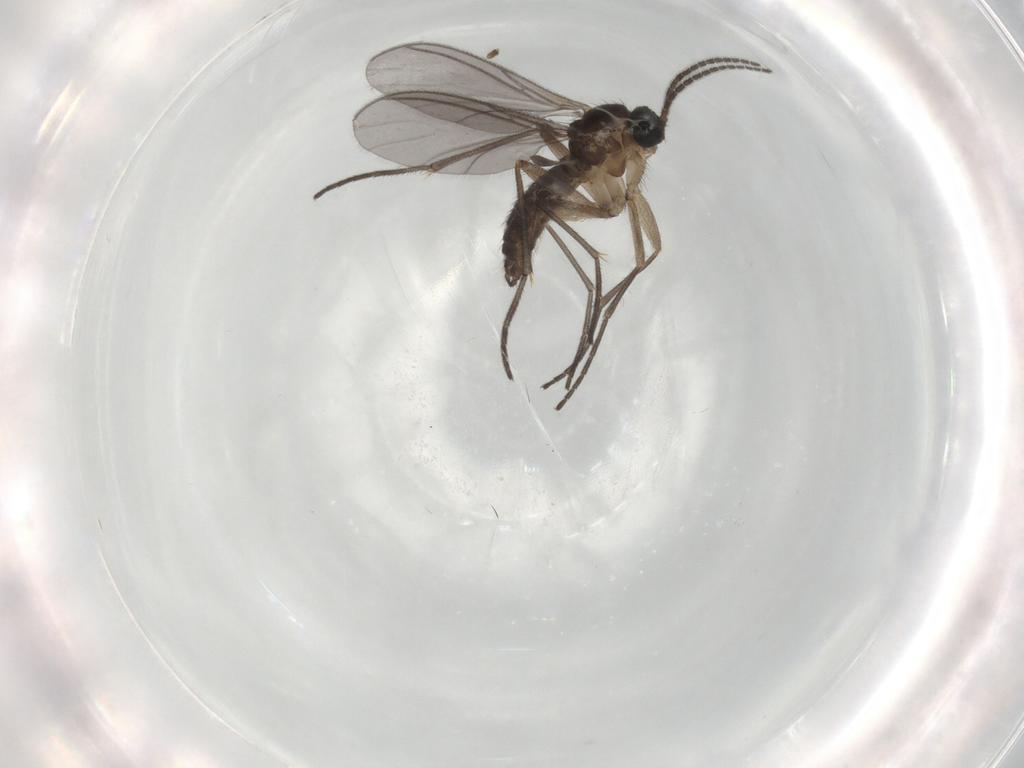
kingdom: Animalia
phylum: Arthropoda
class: Insecta
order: Diptera
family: Sciaridae
